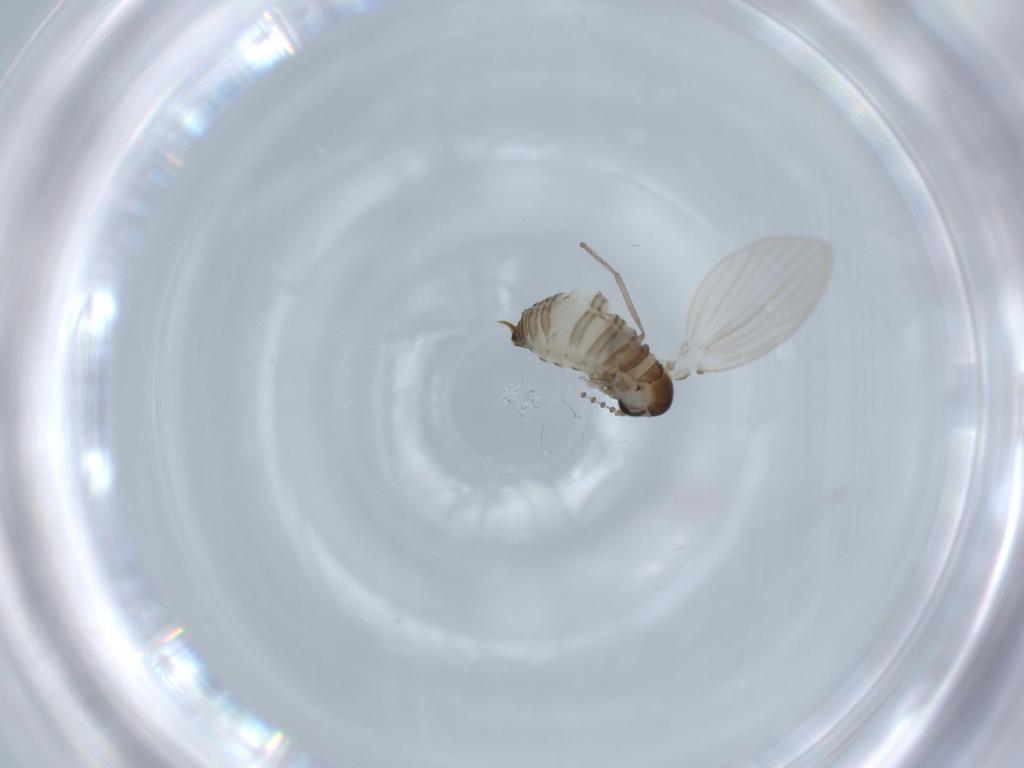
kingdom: Animalia
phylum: Arthropoda
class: Insecta
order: Diptera
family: Psychodidae
